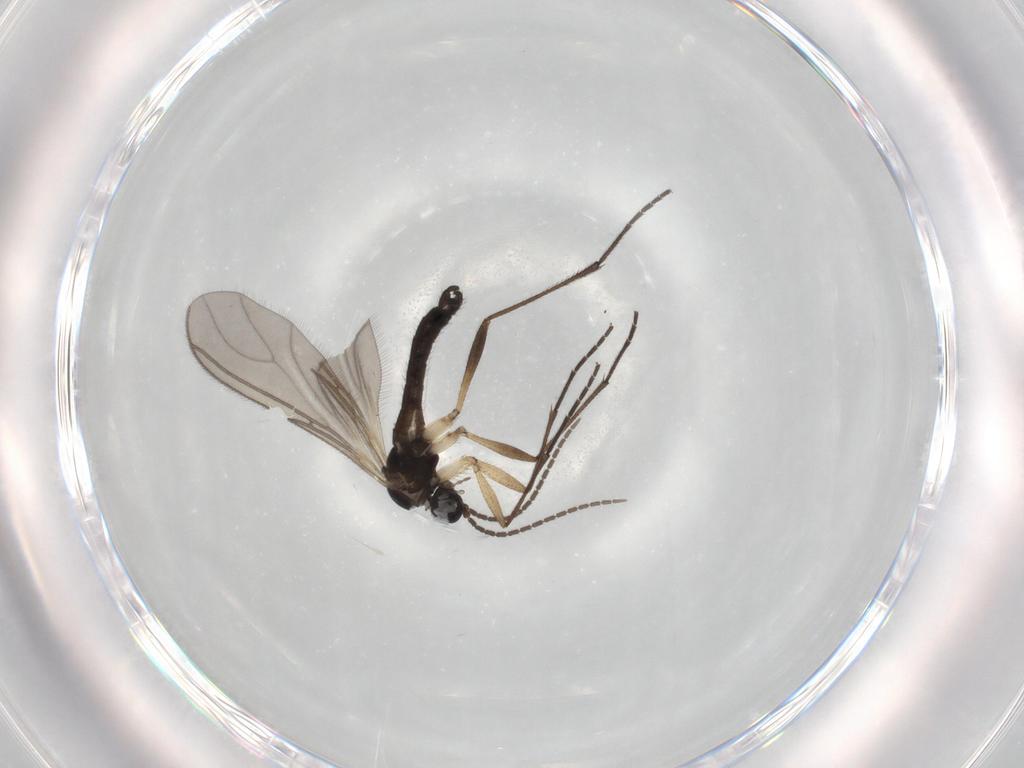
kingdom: Animalia
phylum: Arthropoda
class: Insecta
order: Diptera
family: Sciaridae
